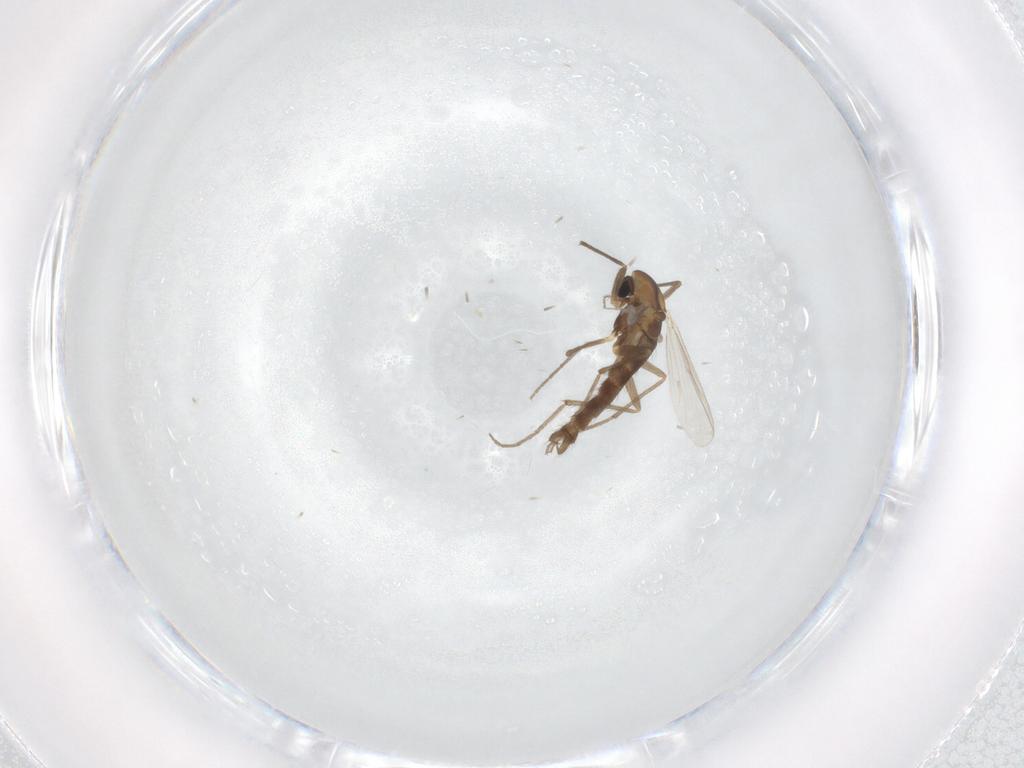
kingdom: Animalia
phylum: Arthropoda
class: Insecta
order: Diptera
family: Chironomidae
